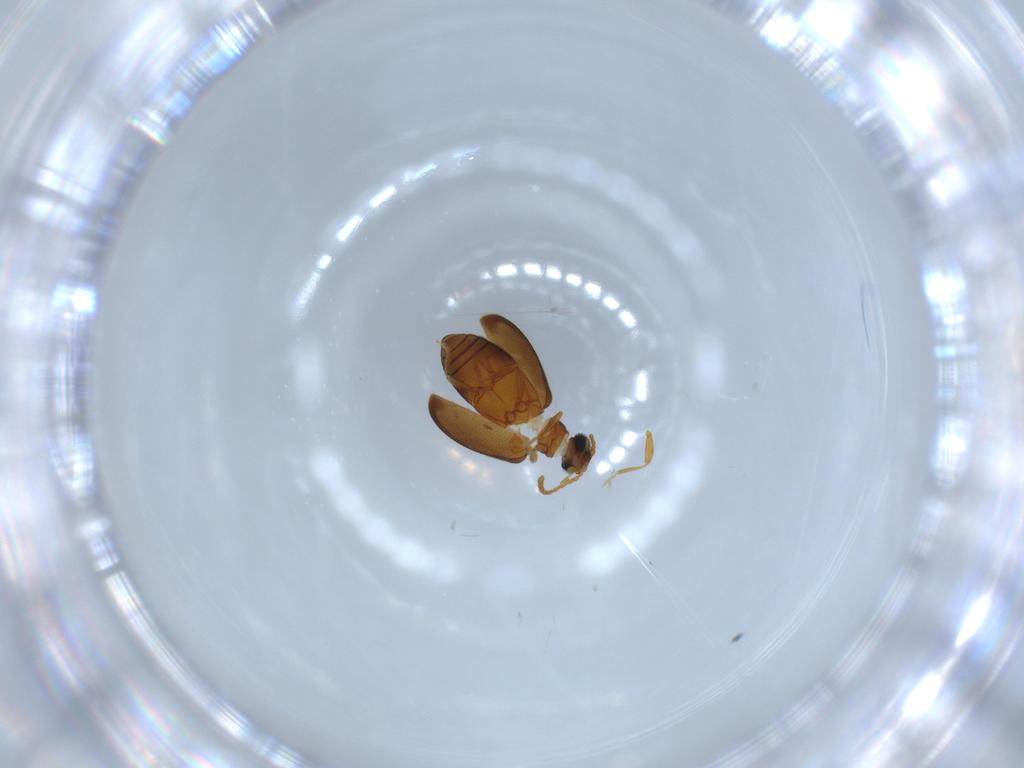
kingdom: Animalia
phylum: Arthropoda
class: Insecta
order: Coleoptera
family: Aderidae
